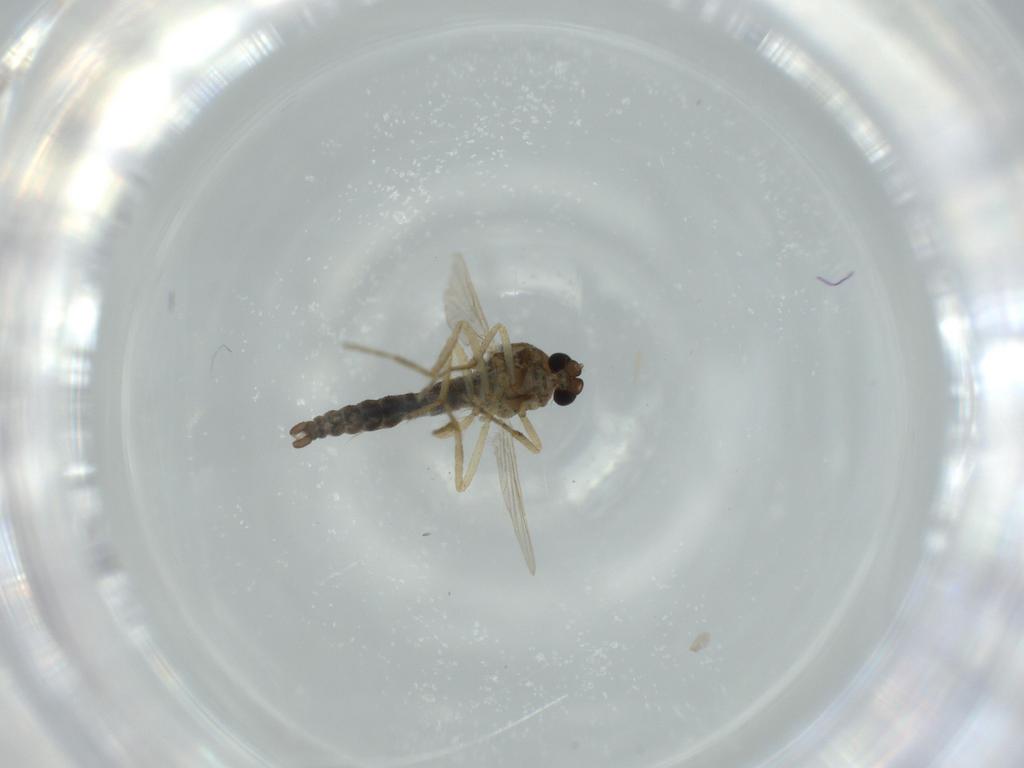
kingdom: Animalia
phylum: Arthropoda
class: Insecta
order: Diptera
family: Ceratopogonidae
